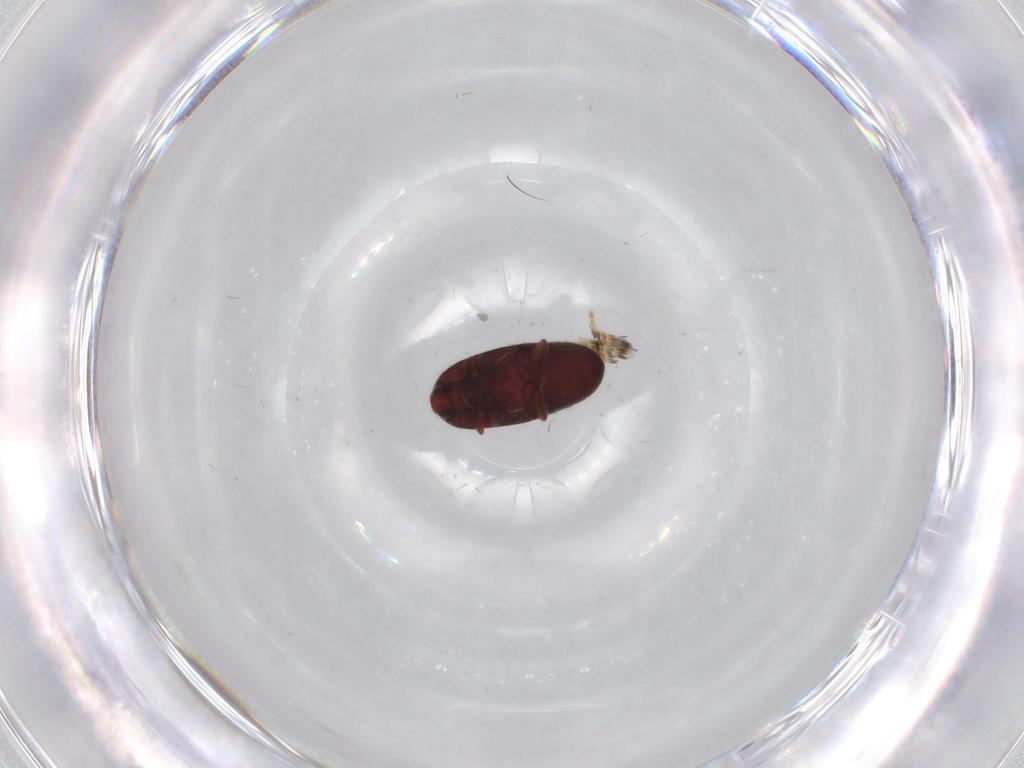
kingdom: Animalia
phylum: Arthropoda
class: Insecta
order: Coleoptera
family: Throscidae
